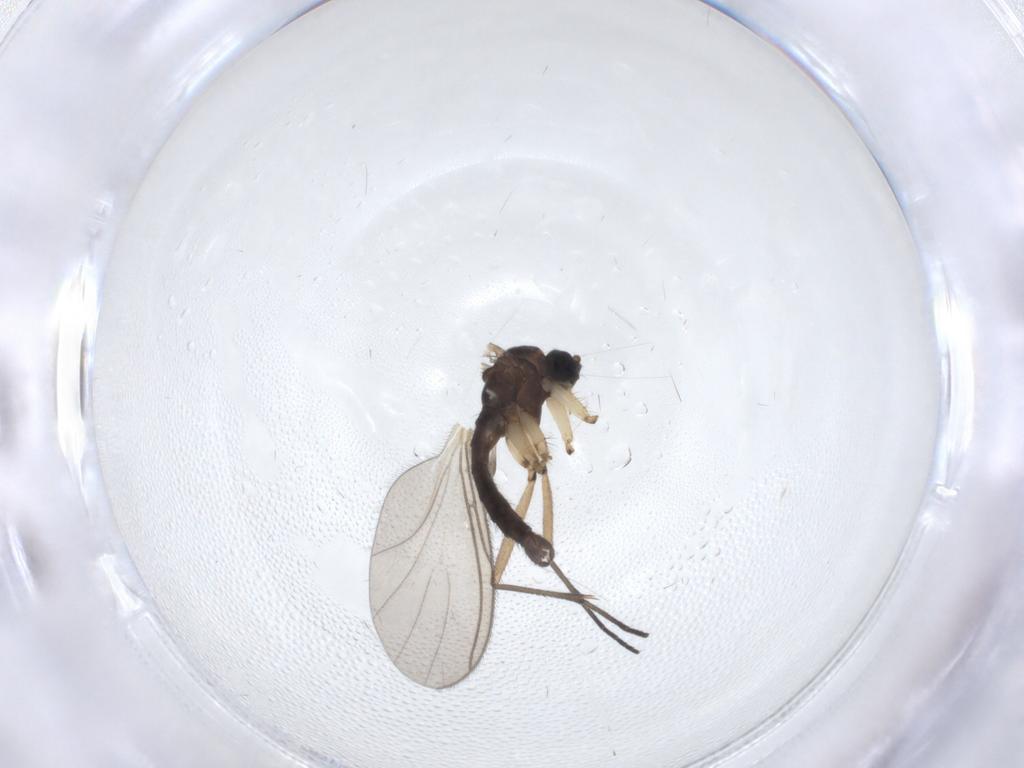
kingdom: Animalia
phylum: Arthropoda
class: Insecta
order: Diptera
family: Sciaridae
